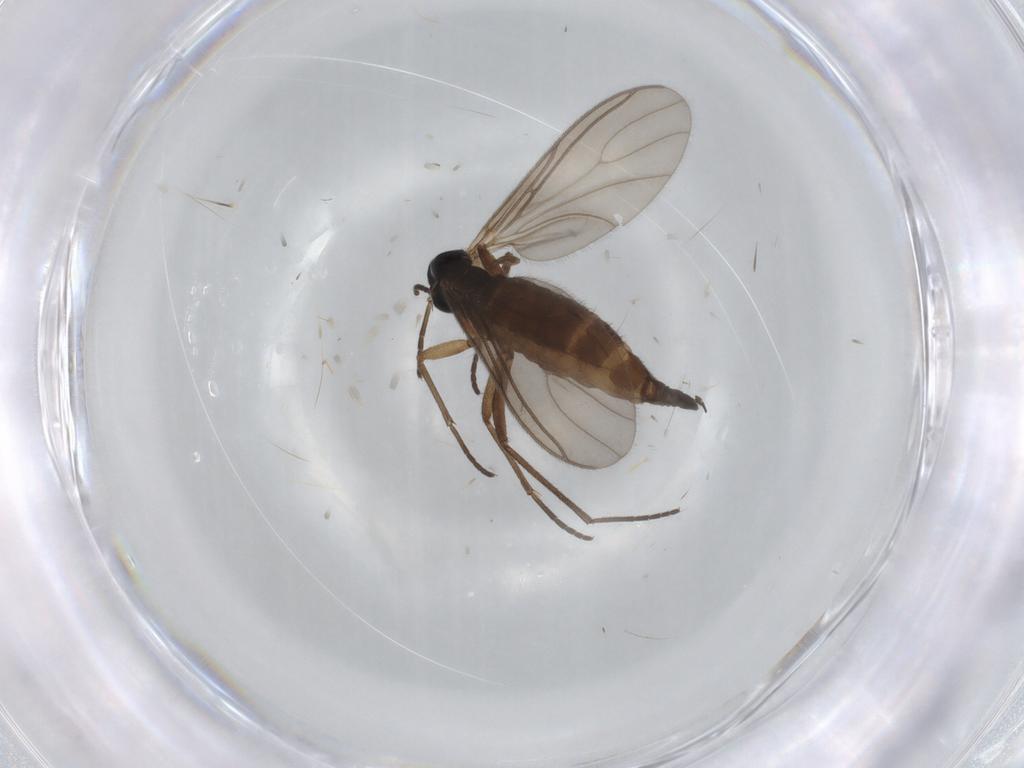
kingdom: Animalia
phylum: Arthropoda
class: Insecta
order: Diptera
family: Sciaridae
